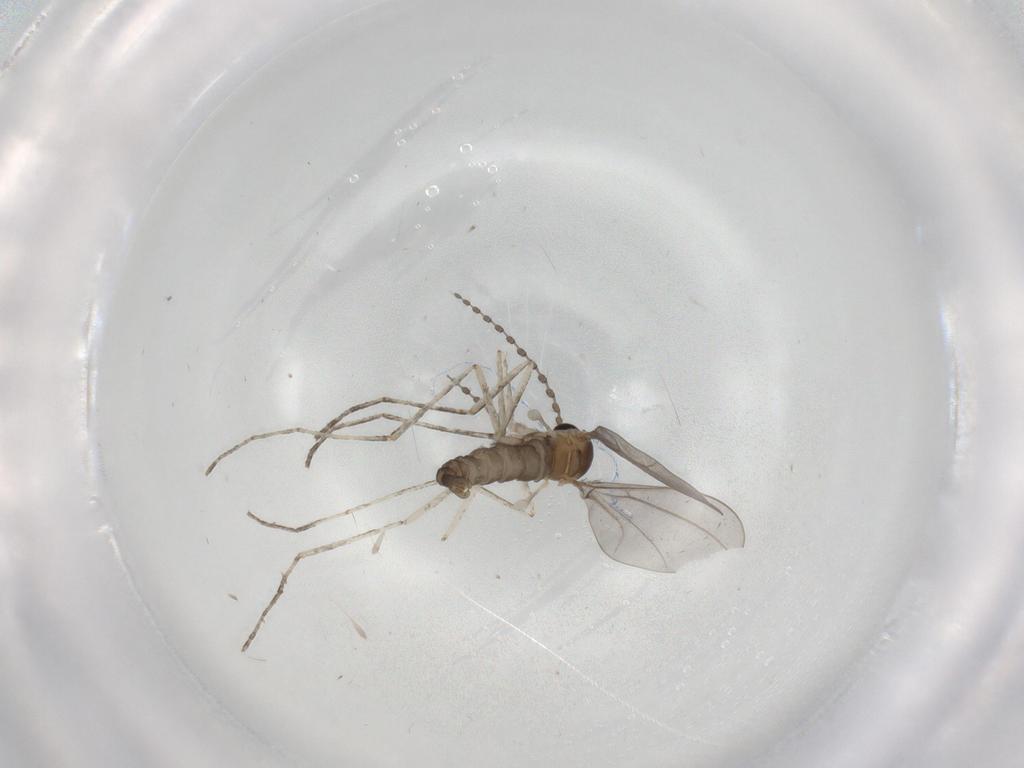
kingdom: Animalia
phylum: Arthropoda
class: Insecta
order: Diptera
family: Cecidomyiidae
